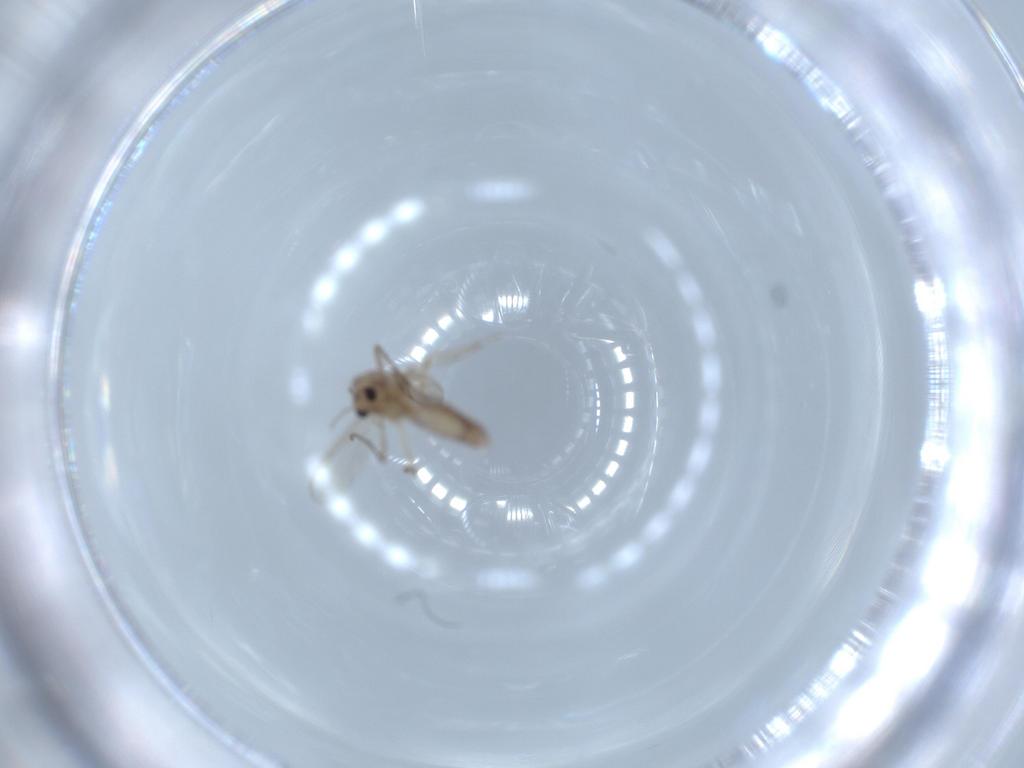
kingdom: Animalia
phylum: Arthropoda
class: Insecta
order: Diptera
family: Chironomidae
